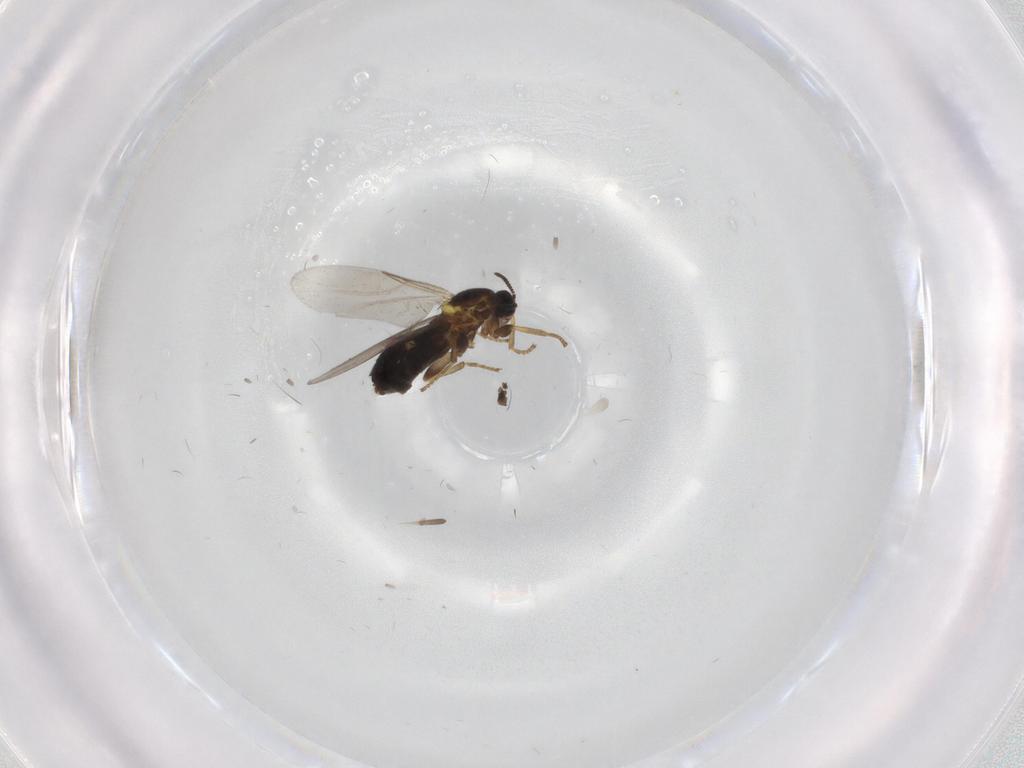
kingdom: Animalia
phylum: Arthropoda
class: Insecta
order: Diptera
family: Scatopsidae
